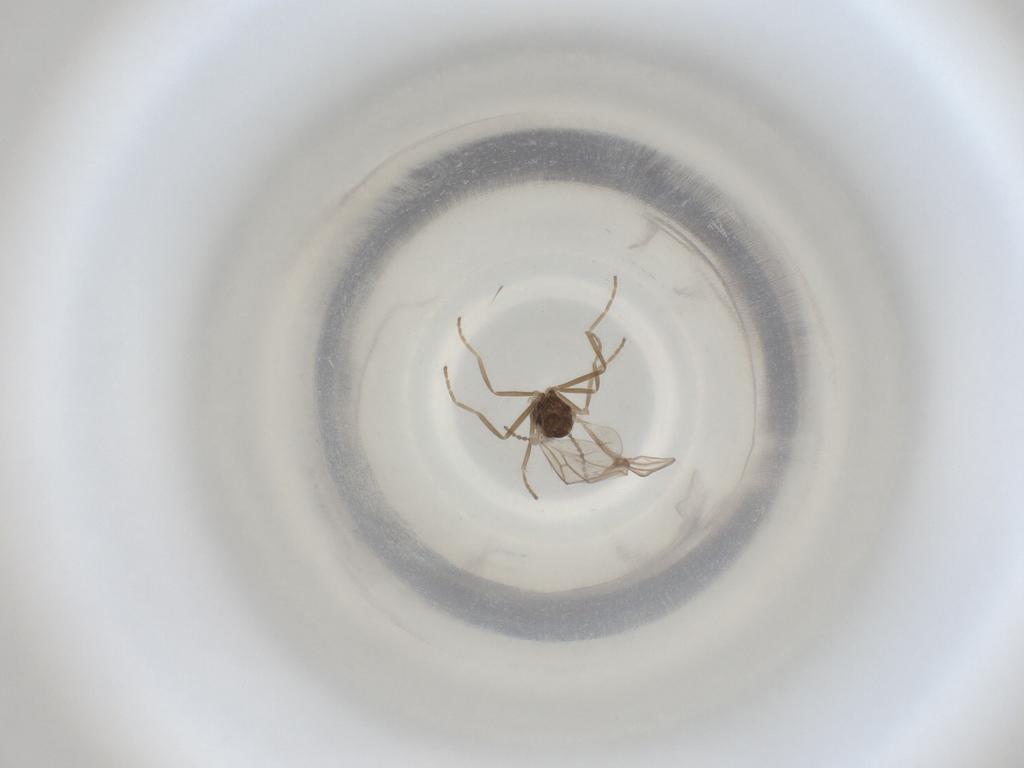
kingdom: Animalia
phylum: Arthropoda
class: Insecta
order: Diptera
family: Cecidomyiidae
